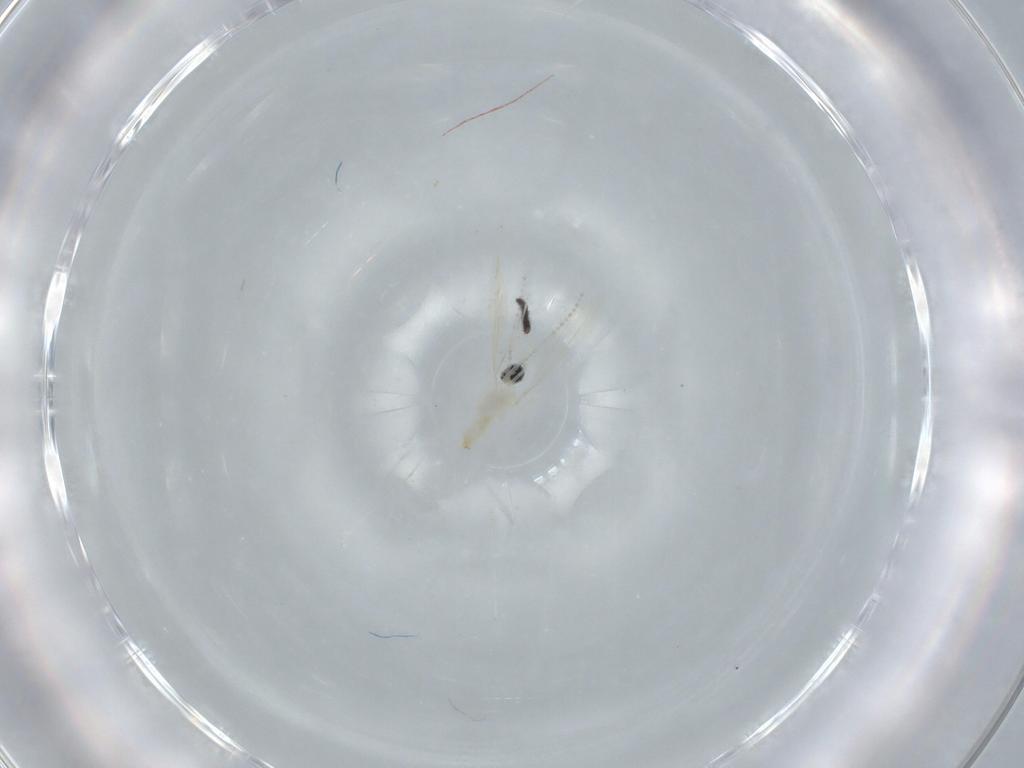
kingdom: Animalia
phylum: Arthropoda
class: Insecta
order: Diptera
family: Cecidomyiidae
